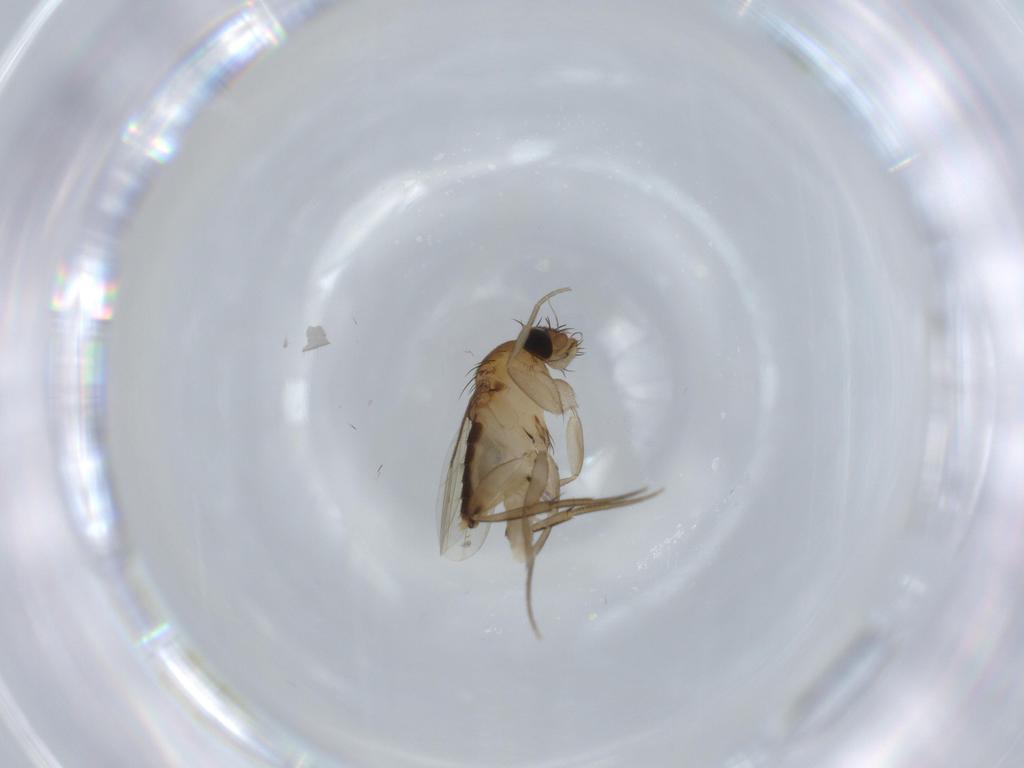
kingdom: Animalia
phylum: Arthropoda
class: Insecta
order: Diptera
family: Phoridae
